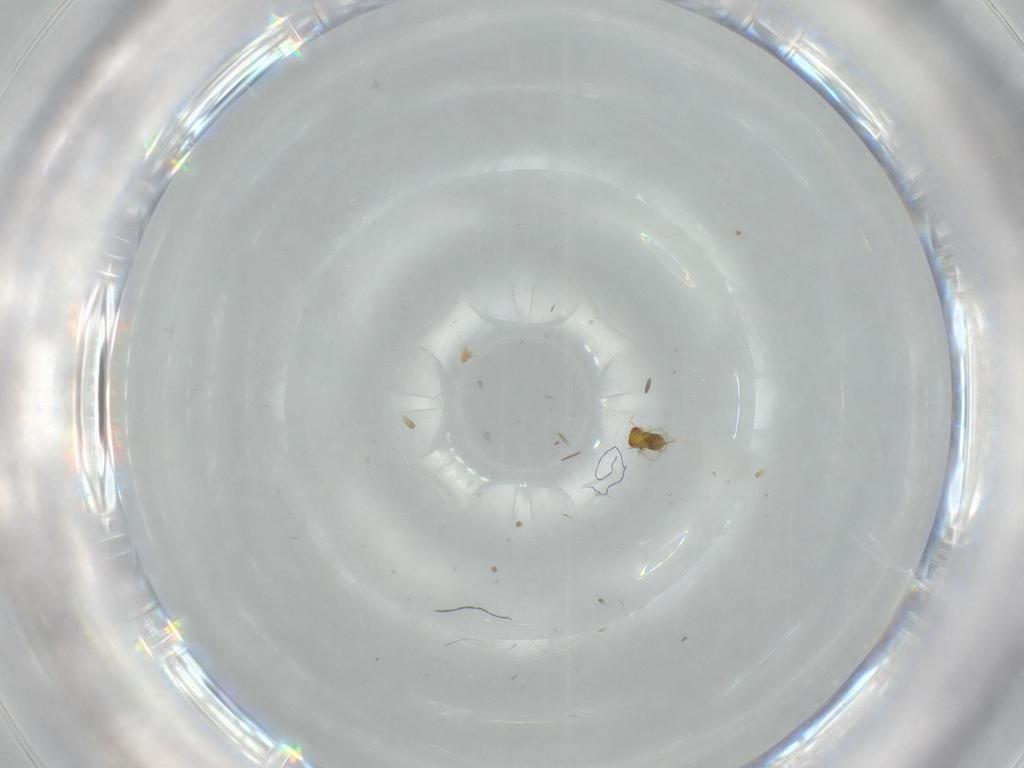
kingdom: Animalia
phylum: Arthropoda
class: Insecta
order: Hymenoptera
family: Trichogrammatidae
